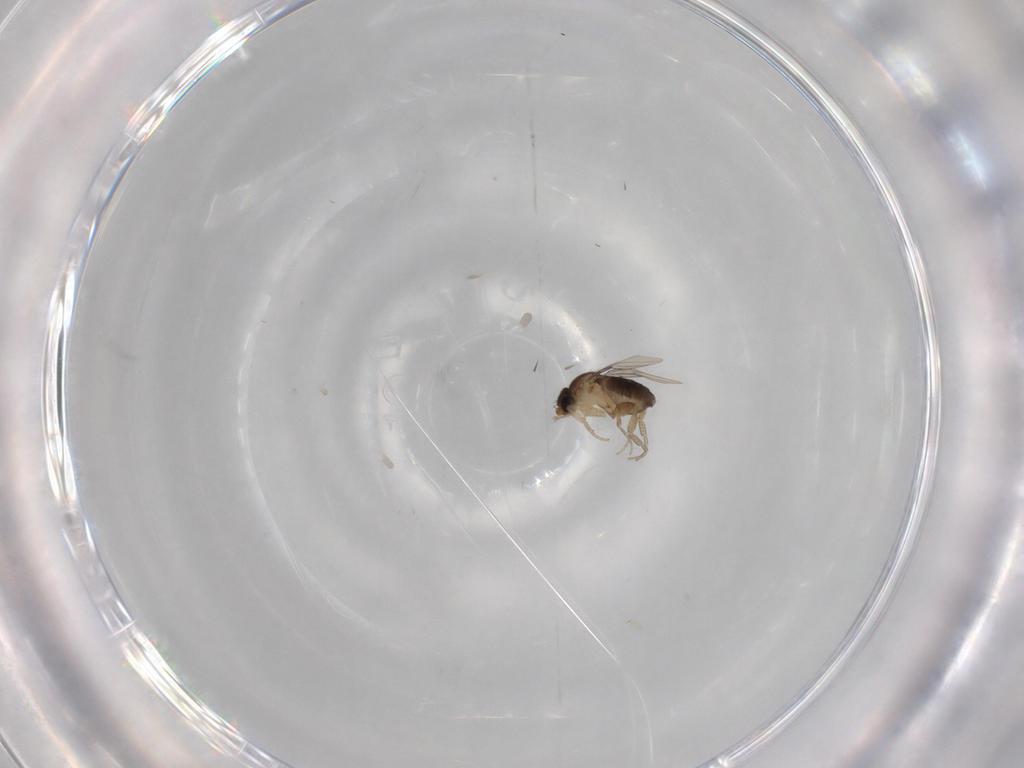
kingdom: Animalia
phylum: Arthropoda
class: Insecta
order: Diptera
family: Phoridae
